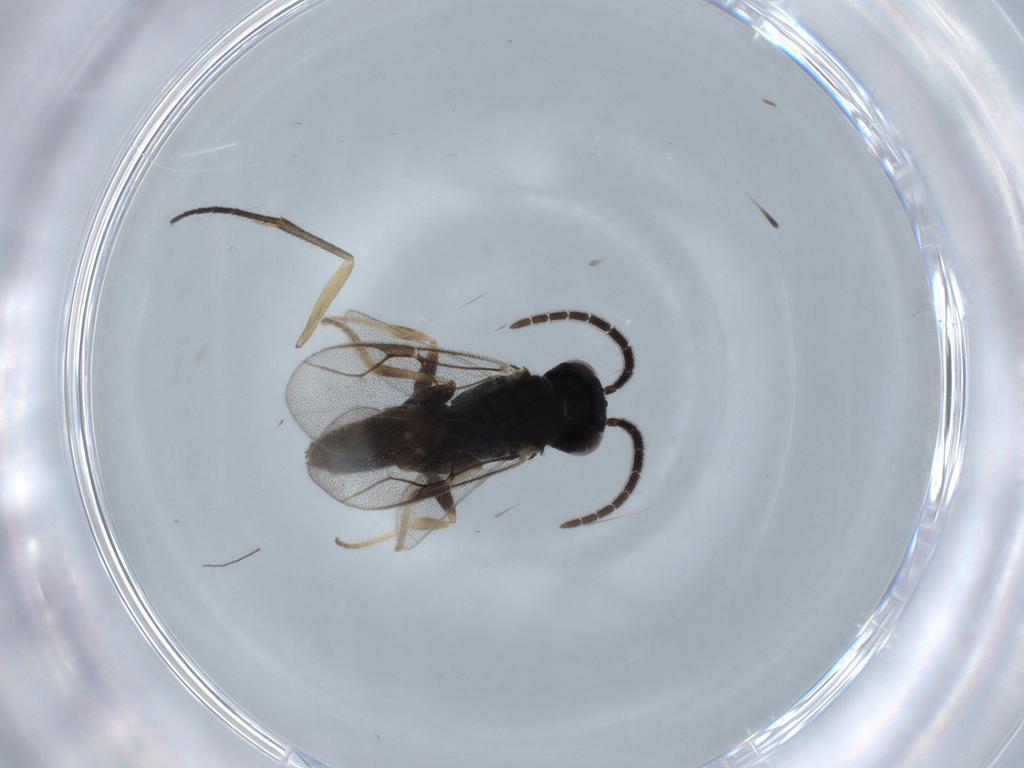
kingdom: Animalia
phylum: Arthropoda
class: Insecta
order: Hymenoptera
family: Dryinidae
